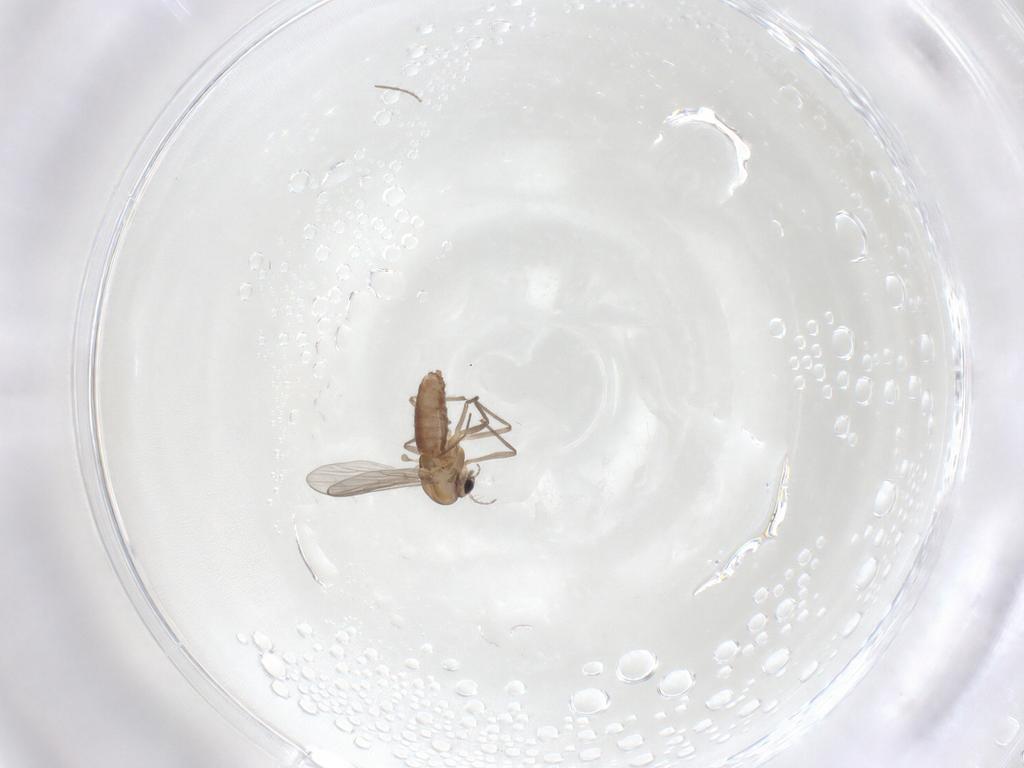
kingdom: Animalia
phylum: Arthropoda
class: Insecta
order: Diptera
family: Chironomidae
